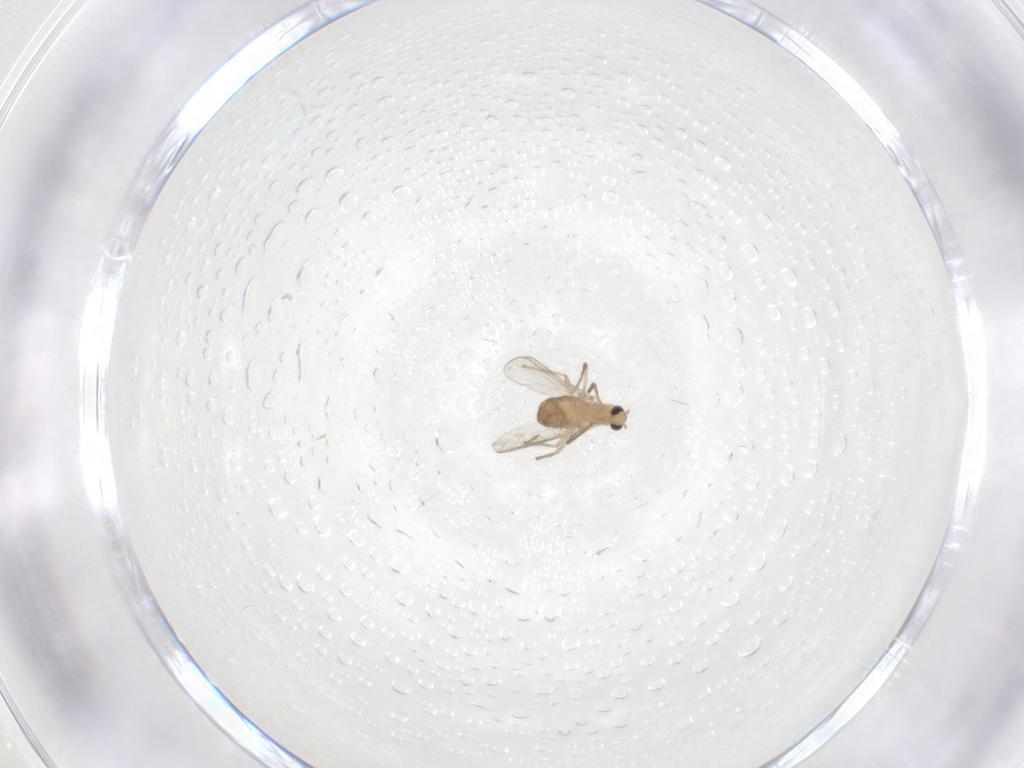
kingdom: Animalia
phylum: Arthropoda
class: Insecta
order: Diptera
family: Chironomidae
